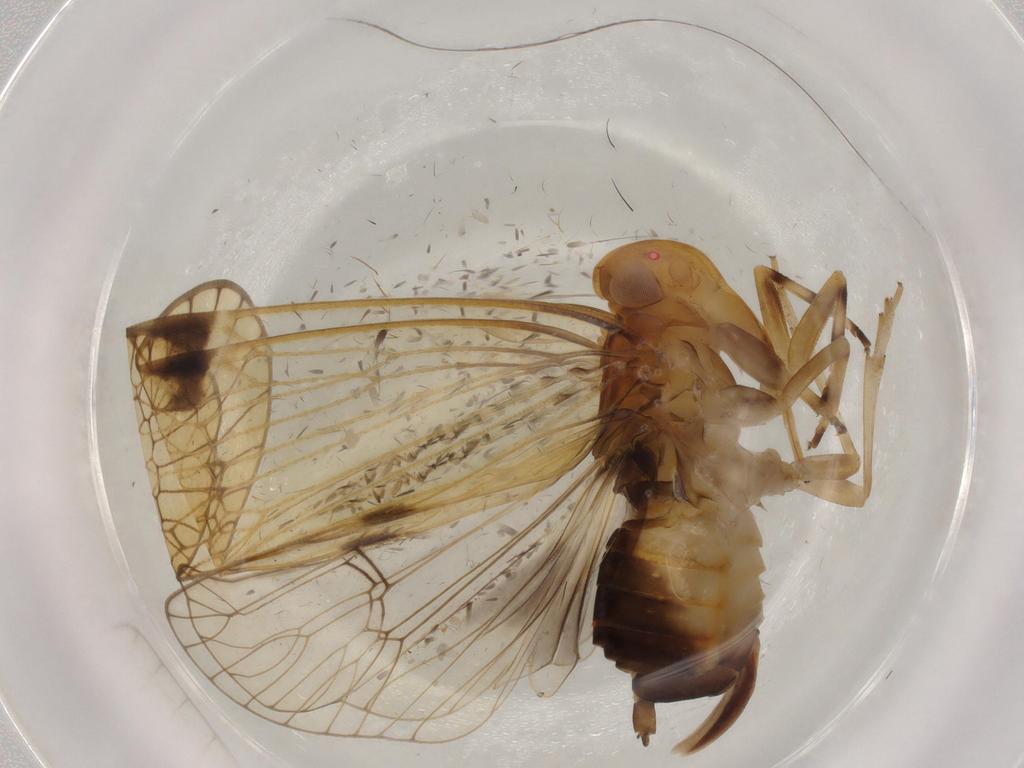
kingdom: Animalia
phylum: Arthropoda
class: Insecta
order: Hemiptera
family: Cixiidae
